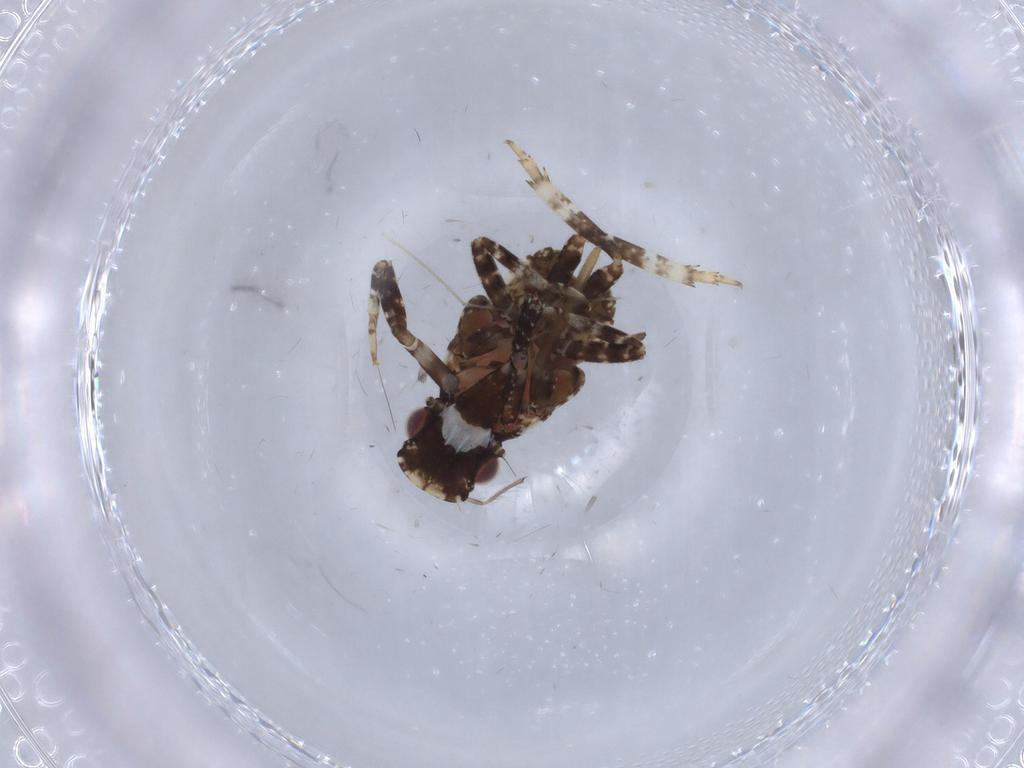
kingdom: Animalia
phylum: Arthropoda
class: Insecta
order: Hemiptera
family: Fulgoridae
